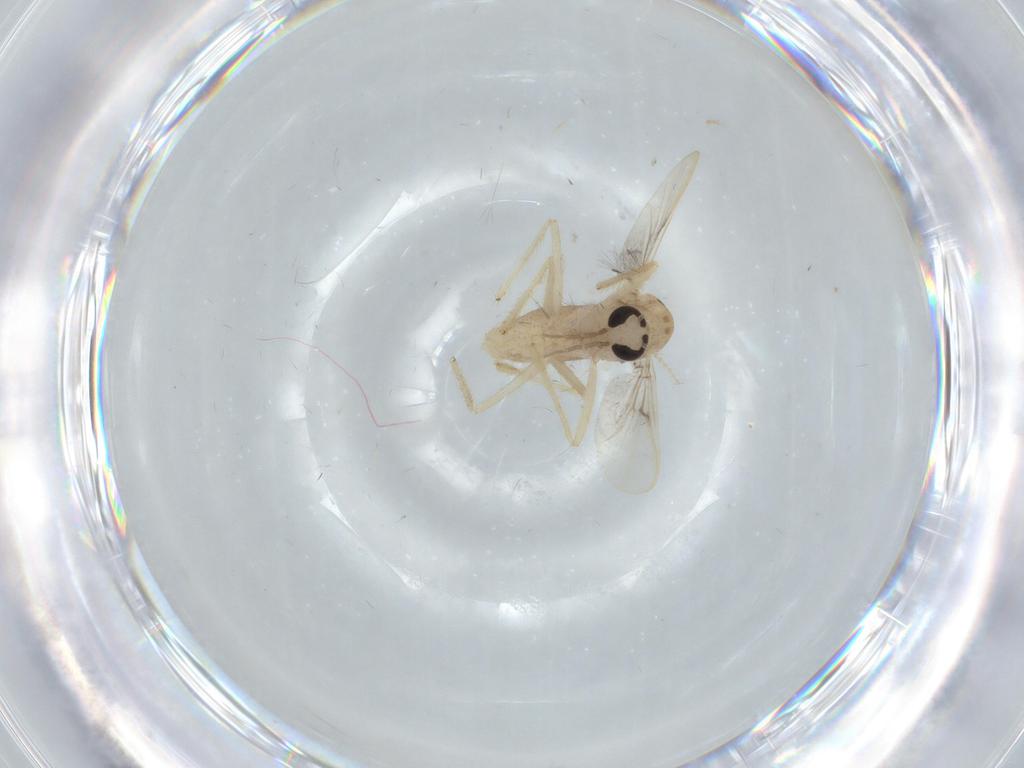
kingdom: Animalia
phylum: Arthropoda
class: Insecta
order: Diptera
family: Chironomidae
